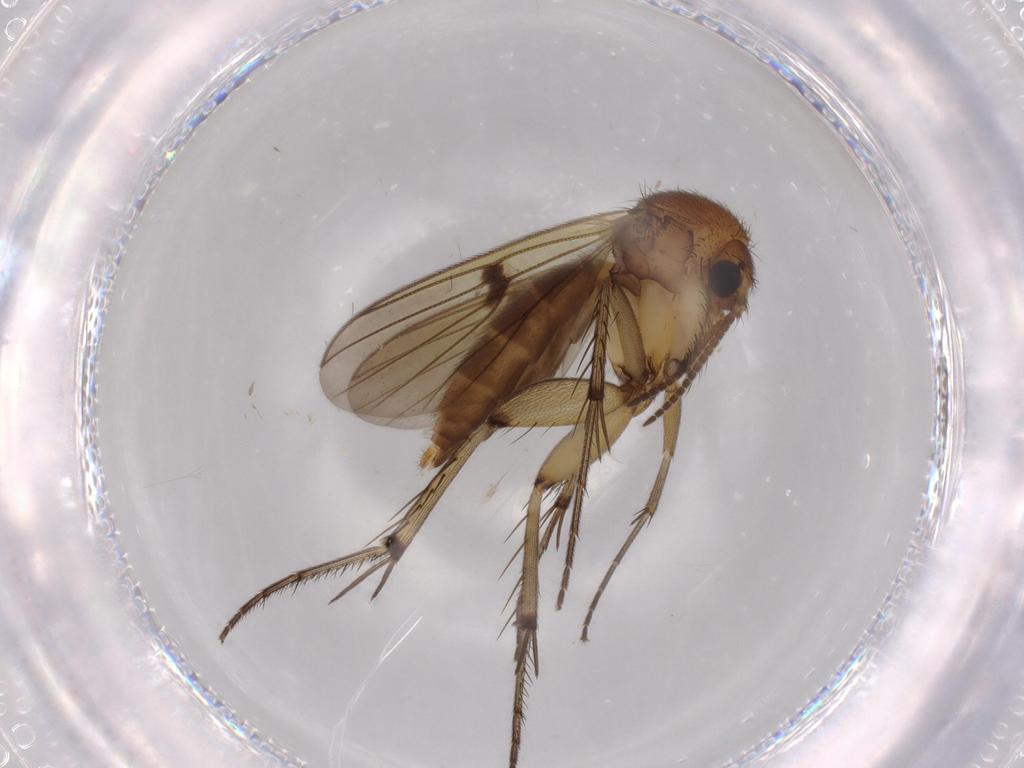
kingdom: Animalia
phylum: Arthropoda
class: Insecta
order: Diptera
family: Mycetophilidae
